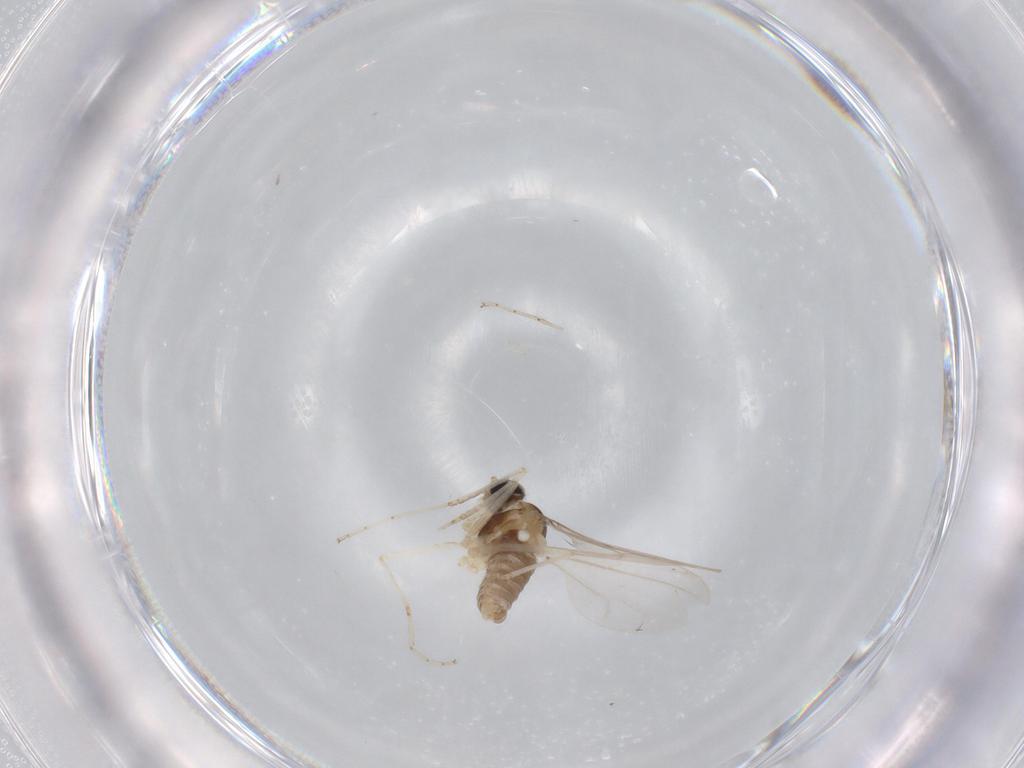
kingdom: Animalia
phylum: Arthropoda
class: Insecta
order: Diptera
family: Cecidomyiidae
